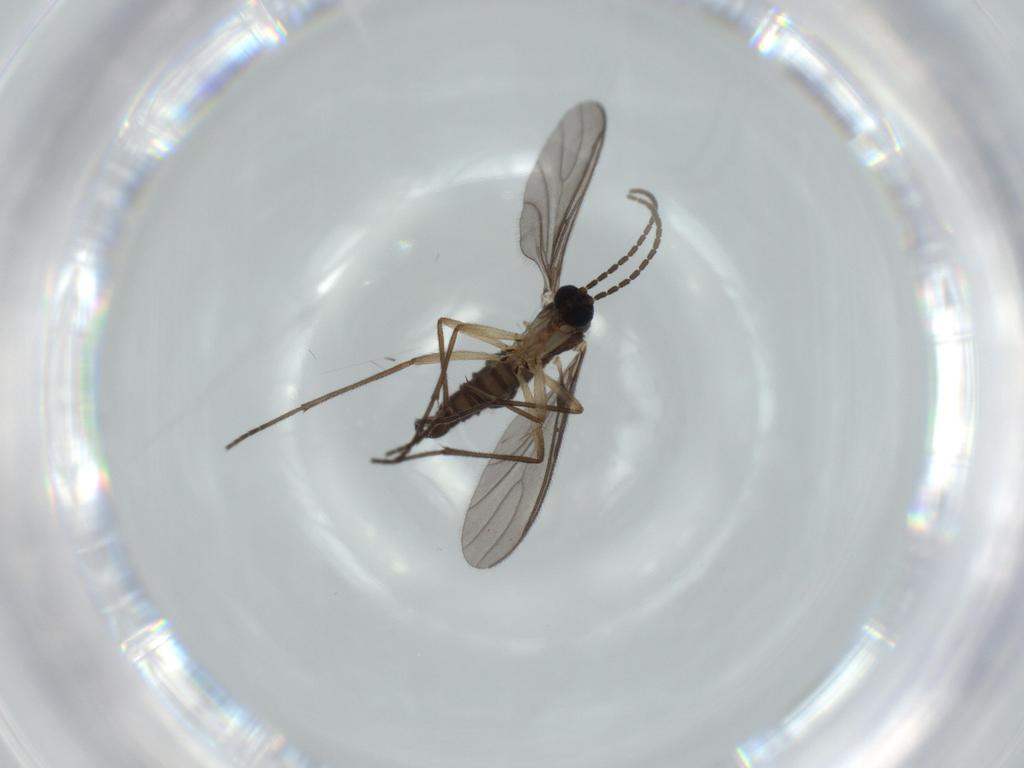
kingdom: Animalia
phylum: Arthropoda
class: Insecta
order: Diptera
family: Sciaridae
